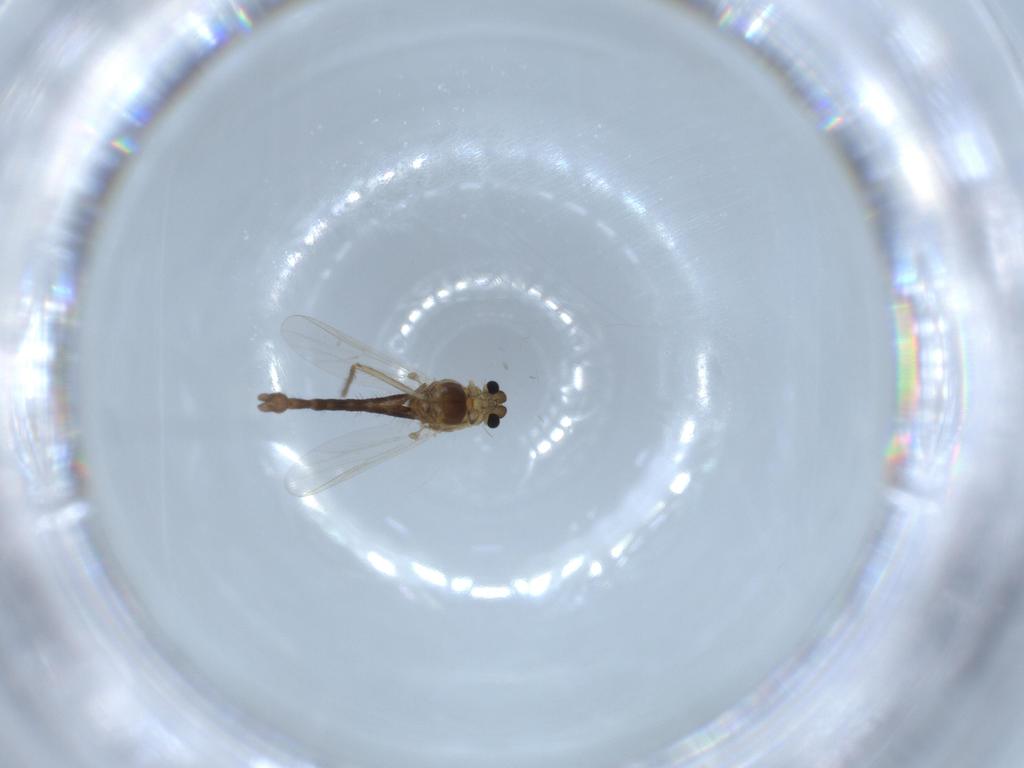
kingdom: Animalia
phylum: Arthropoda
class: Insecta
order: Diptera
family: Chironomidae
